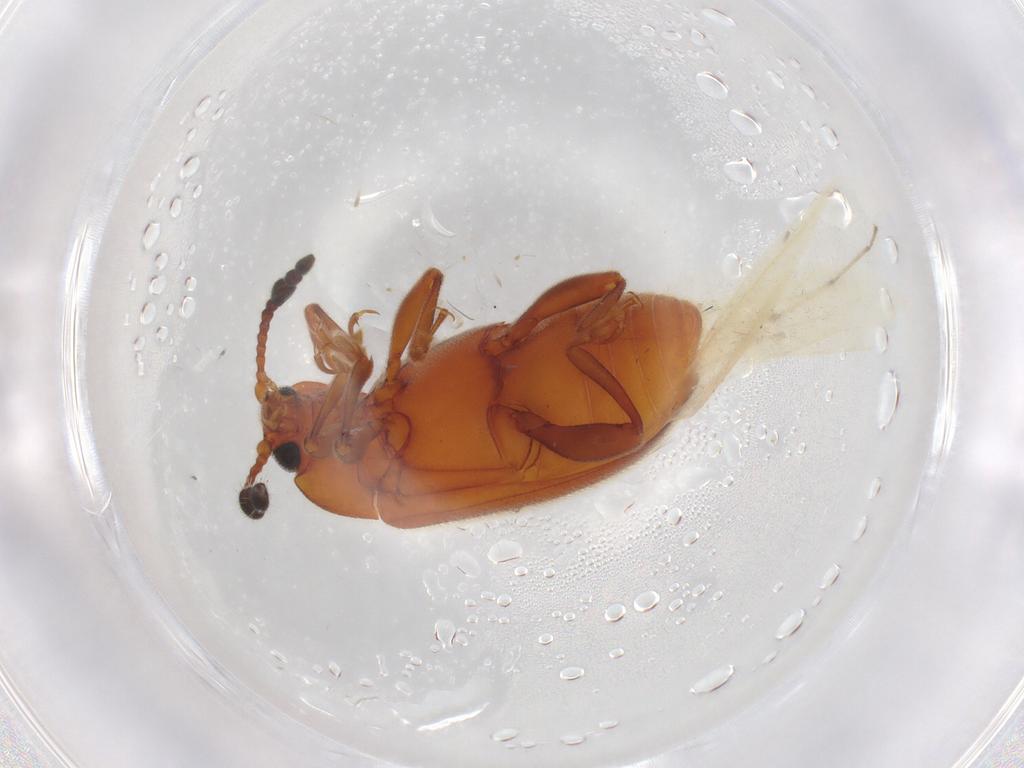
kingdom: Animalia
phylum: Arthropoda
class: Insecta
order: Coleoptera
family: Endomychidae
